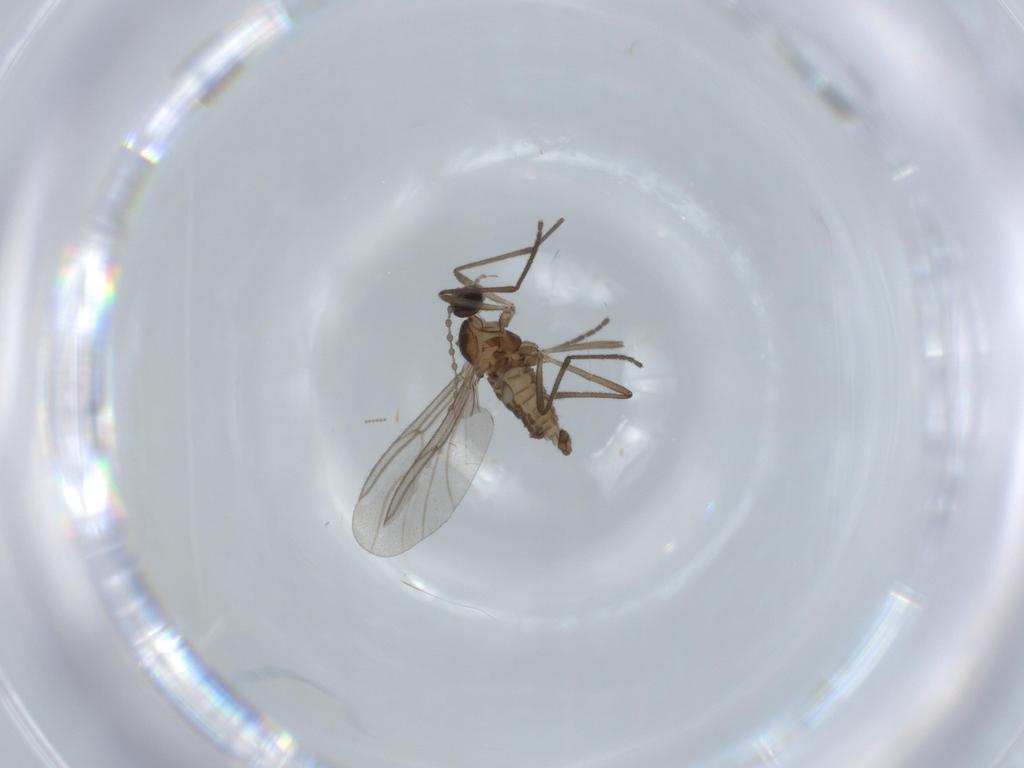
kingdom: Animalia
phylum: Arthropoda
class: Insecta
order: Diptera
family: Cecidomyiidae
